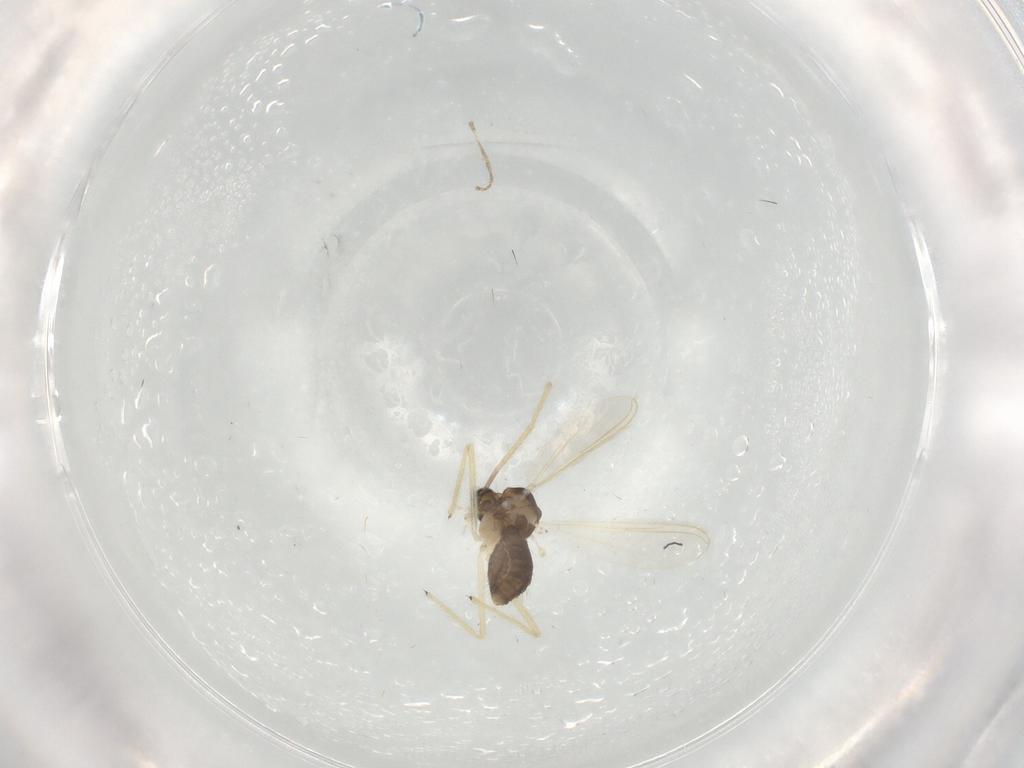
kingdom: Animalia
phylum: Arthropoda
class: Insecta
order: Diptera
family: Chironomidae
